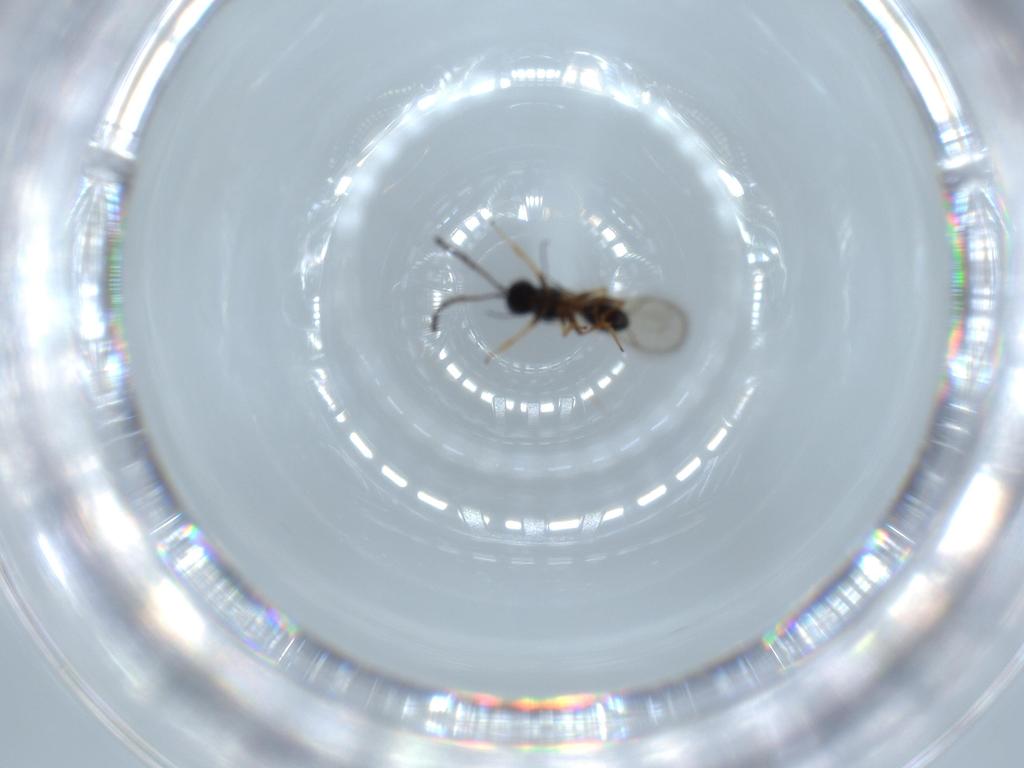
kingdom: Animalia
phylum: Arthropoda
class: Insecta
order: Hymenoptera
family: Figitidae
